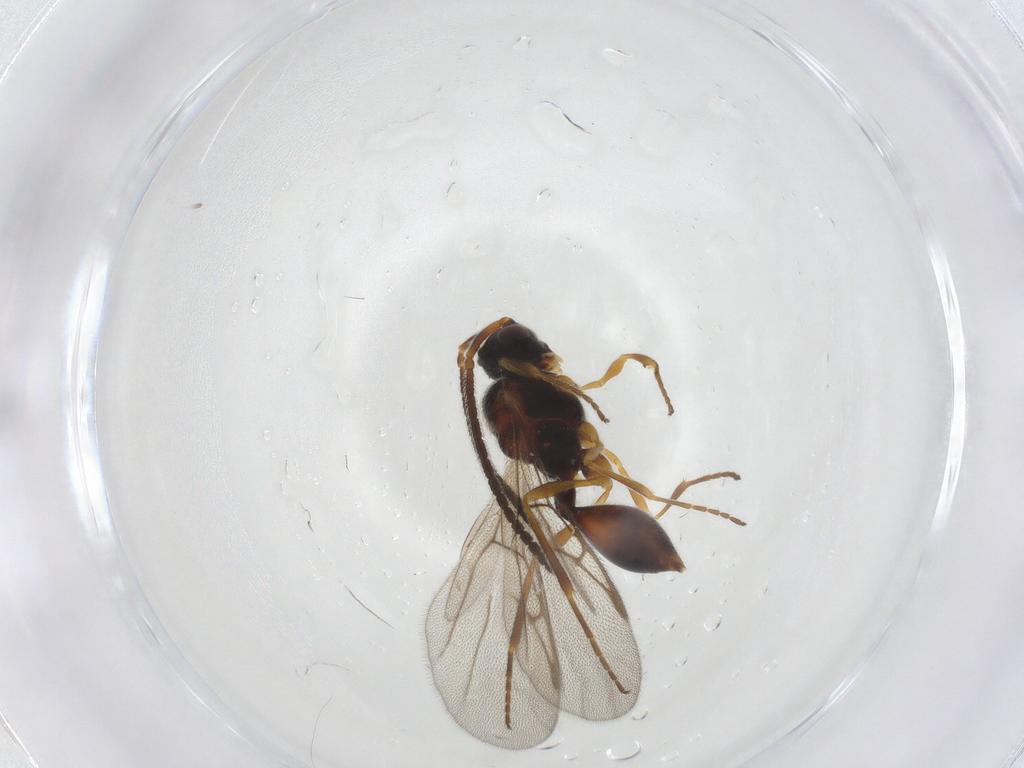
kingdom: Animalia
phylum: Arthropoda
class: Insecta
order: Hymenoptera
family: Diapriidae
